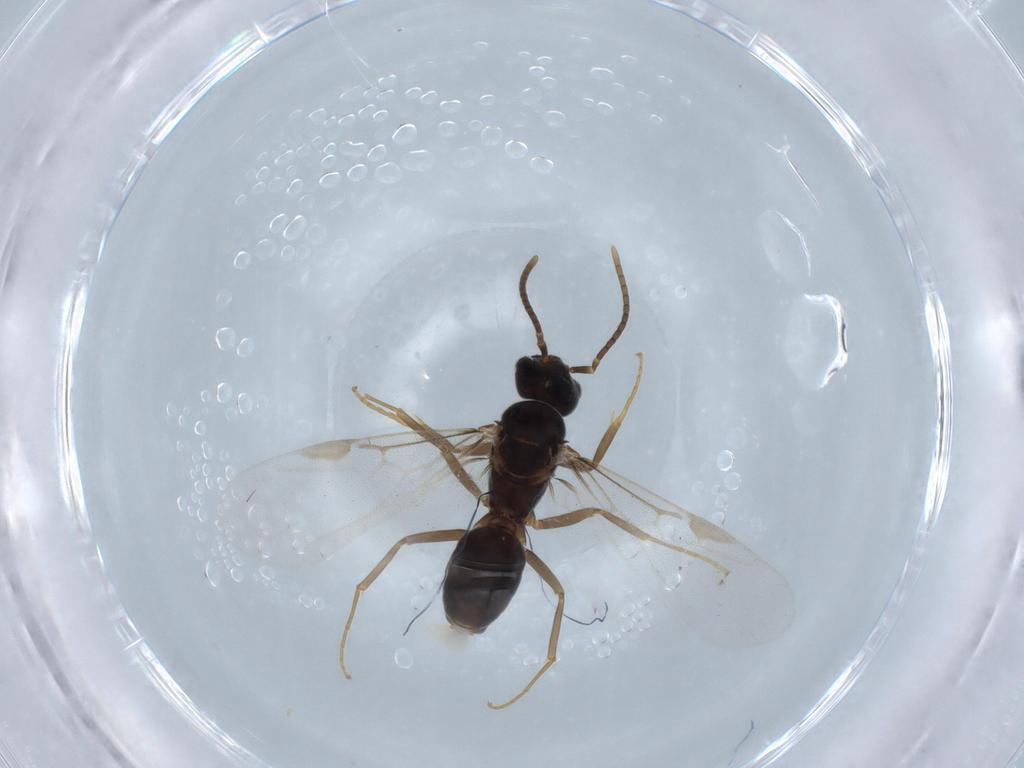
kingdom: Animalia
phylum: Arthropoda
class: Insecta
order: Hymenoptera
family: Formicidae
